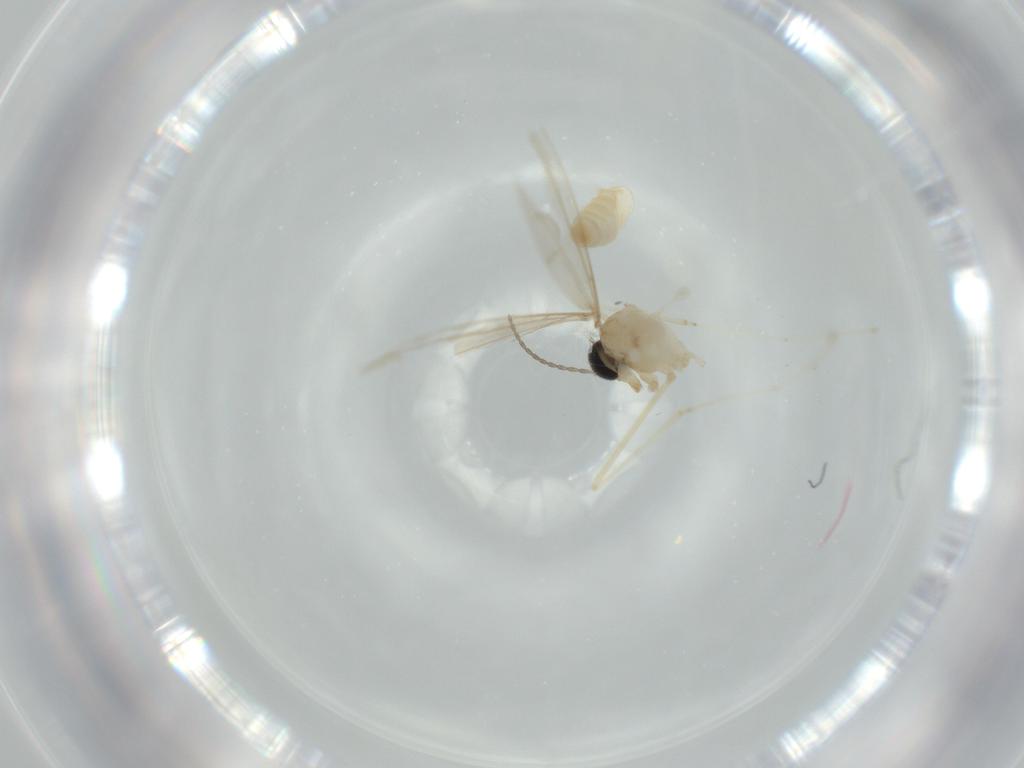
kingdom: Animalia
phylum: Arthropoda
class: Insecta
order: Diptera
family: Cecidomyiidae
